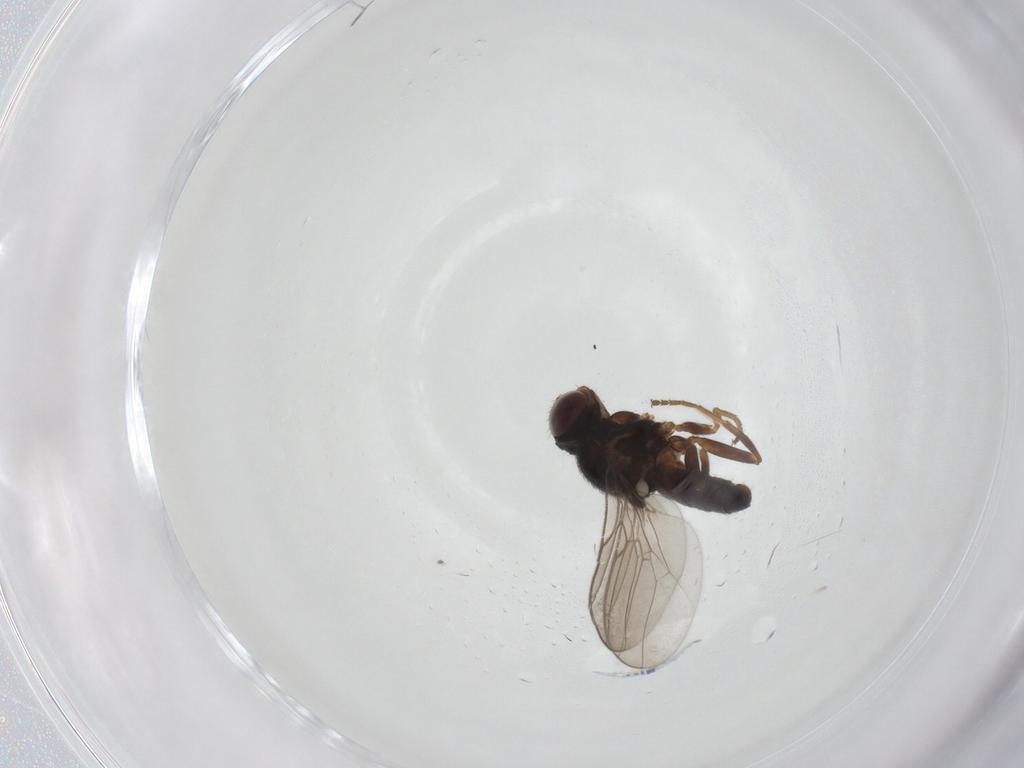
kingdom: Animalia
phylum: Arthropoda
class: Insecta
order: Diptera
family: Chloropidae
